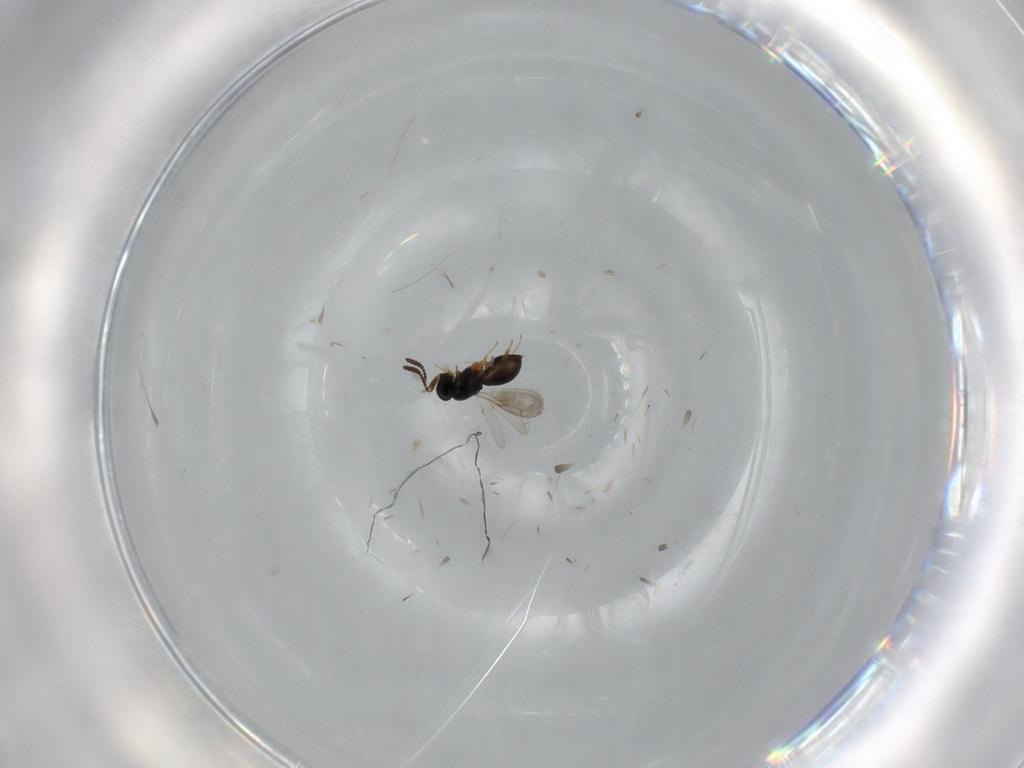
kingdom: Animalia
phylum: Arthropoda
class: Insecta
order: Hymenoptera
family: Scelionidae
